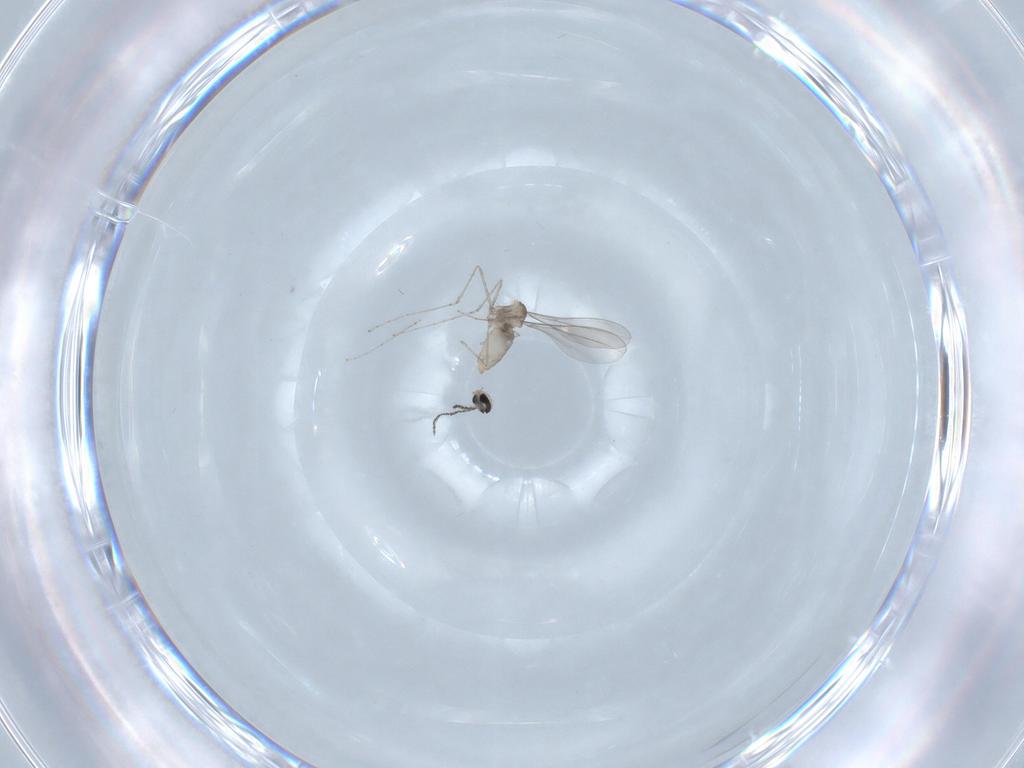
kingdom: Animalia
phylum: Arthropoda
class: Insecta
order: Diptera
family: Cecidomyiidae
